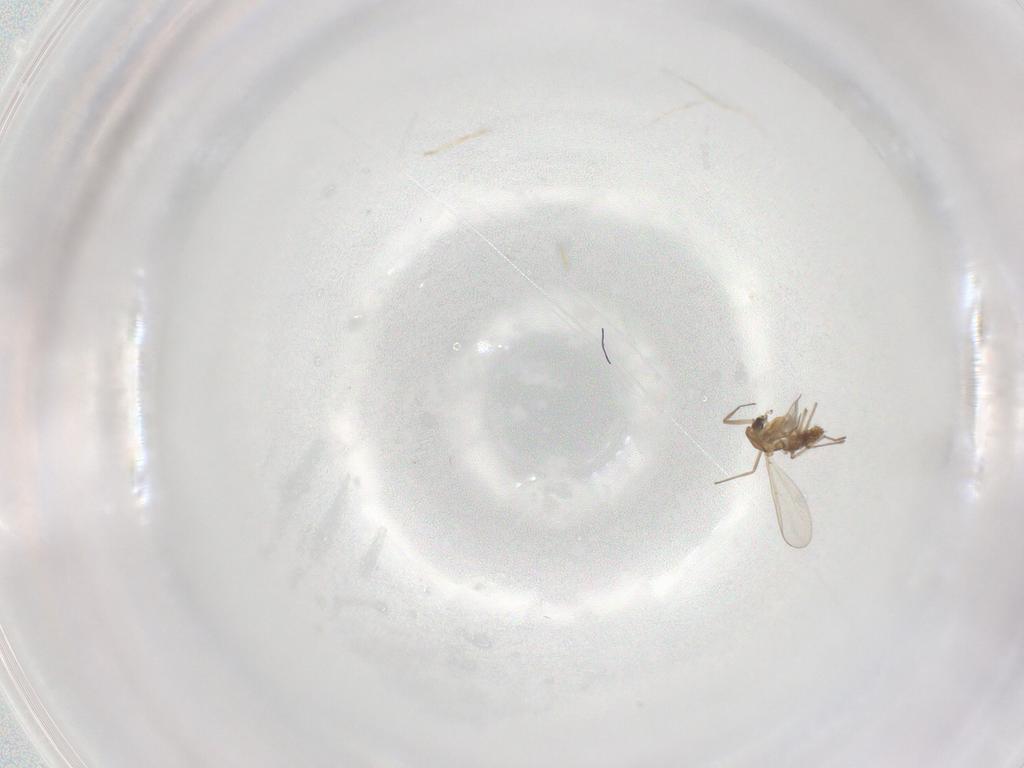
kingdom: Animalia
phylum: Arthropoda
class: Insecta
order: Diptera
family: Chironomidae
